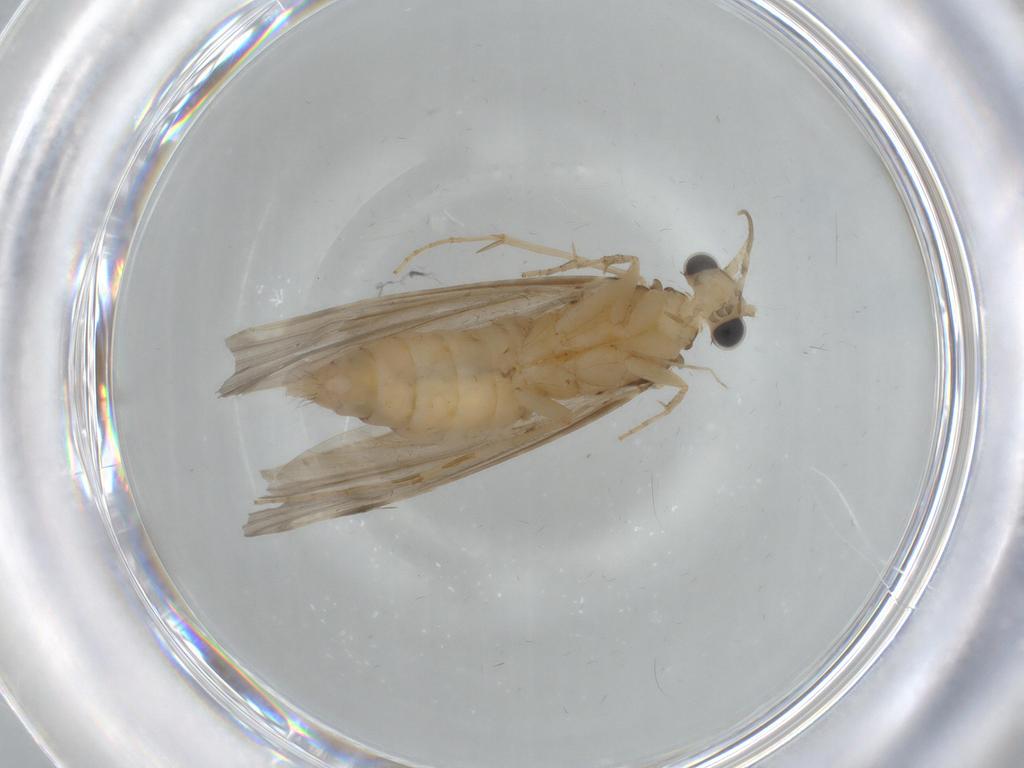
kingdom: Animalia
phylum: Arthropoda
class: Insecta
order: Trichoptera
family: Ecnomidae
